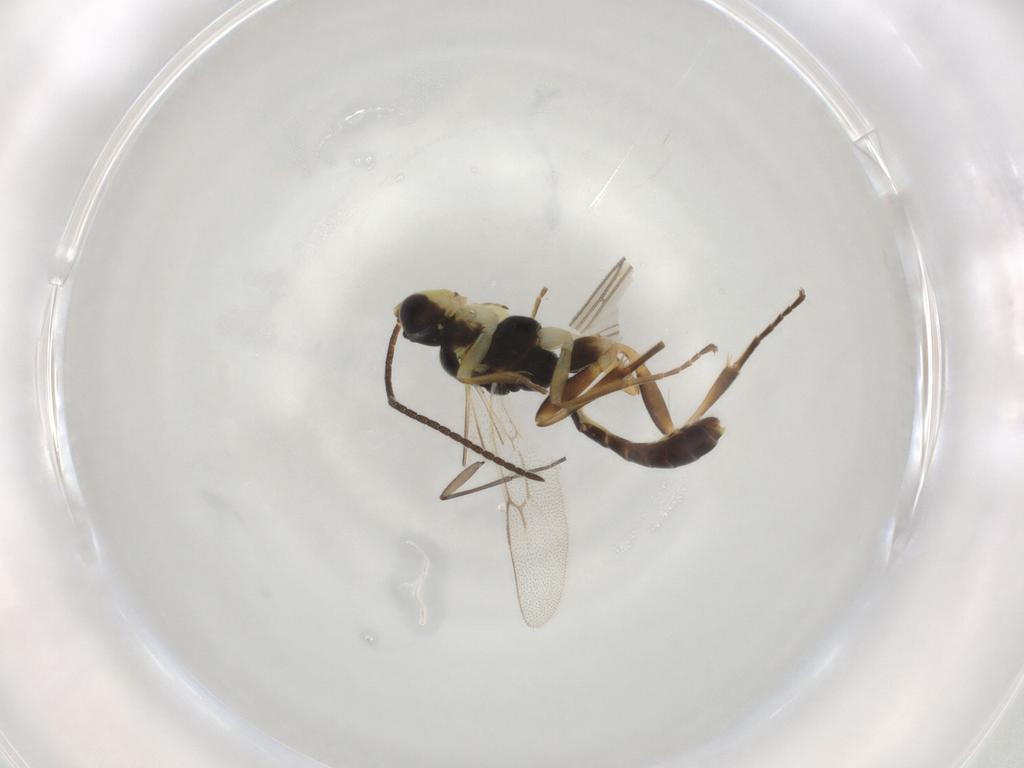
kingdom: Animalia
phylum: Arthropoda
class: Insecta
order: Hymenoptera
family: Ichneumonidae
